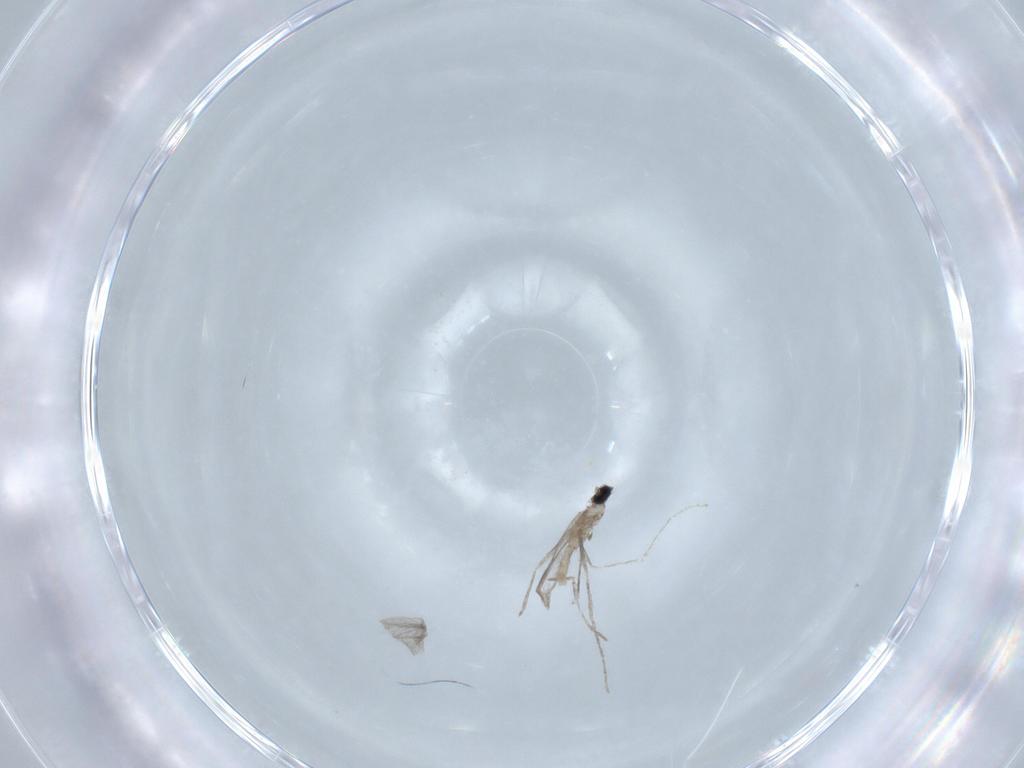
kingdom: Animalia
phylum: Arthropoda
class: Insecta
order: Diptera
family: Cecidomyiidae
